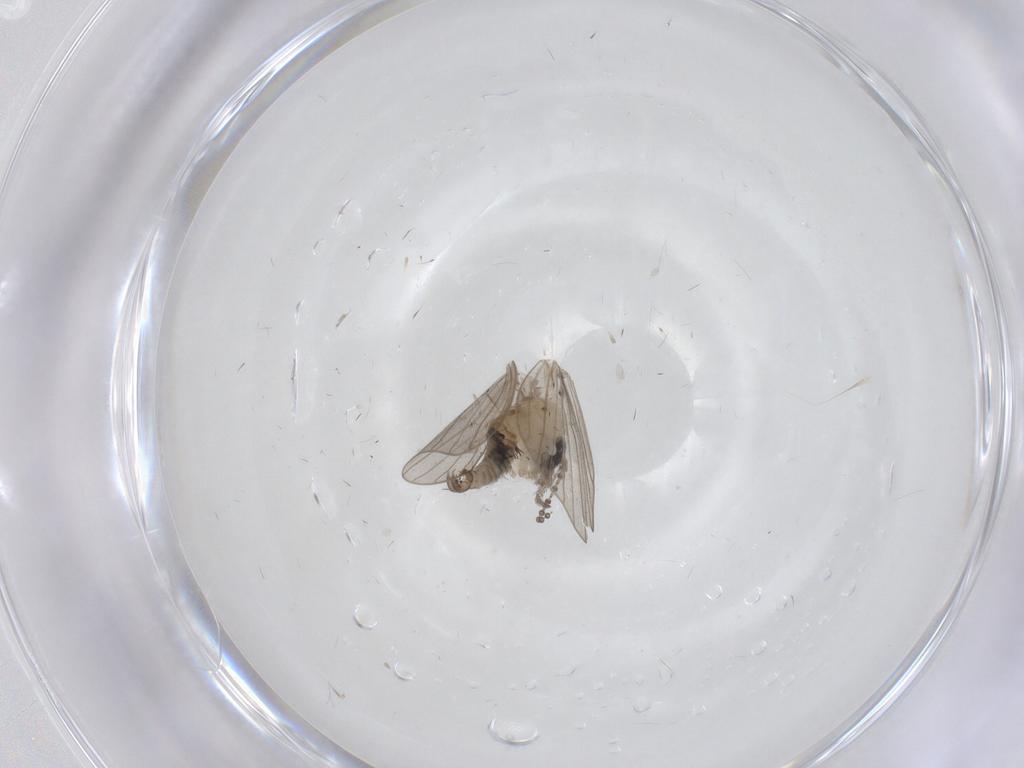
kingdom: Animalia
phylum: Arthropoda
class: Insecta
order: Diptera
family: Psychodidae
